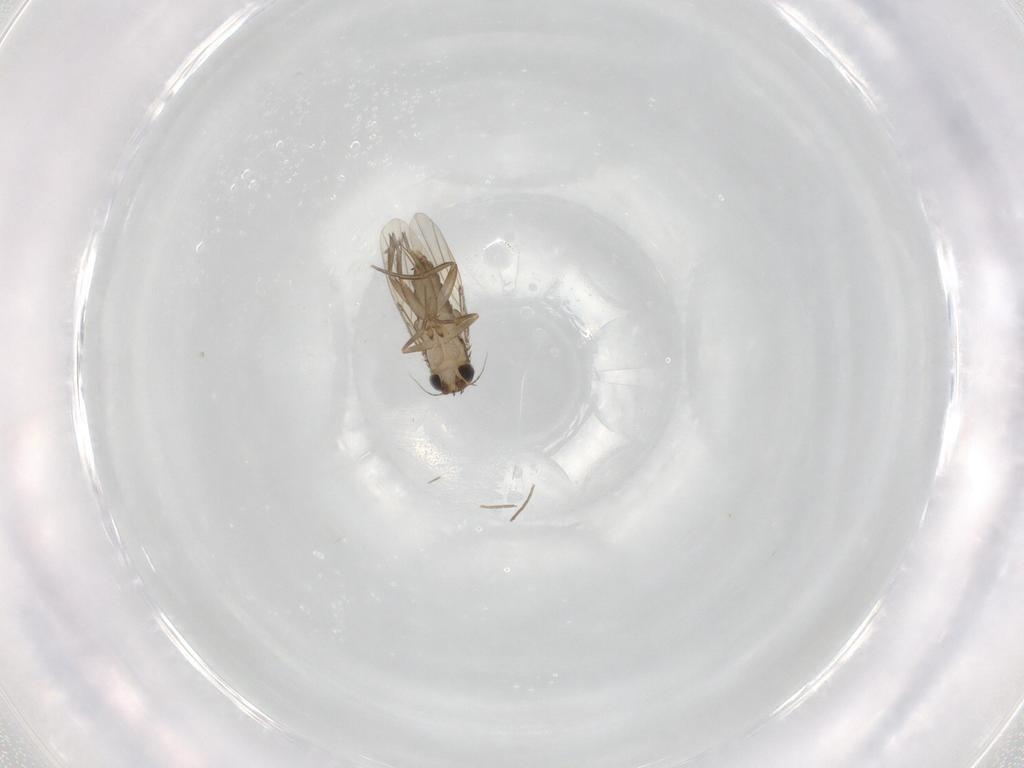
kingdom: Animalia
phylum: Arthropoda
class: Insecta
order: Diptera
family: Phoridae
